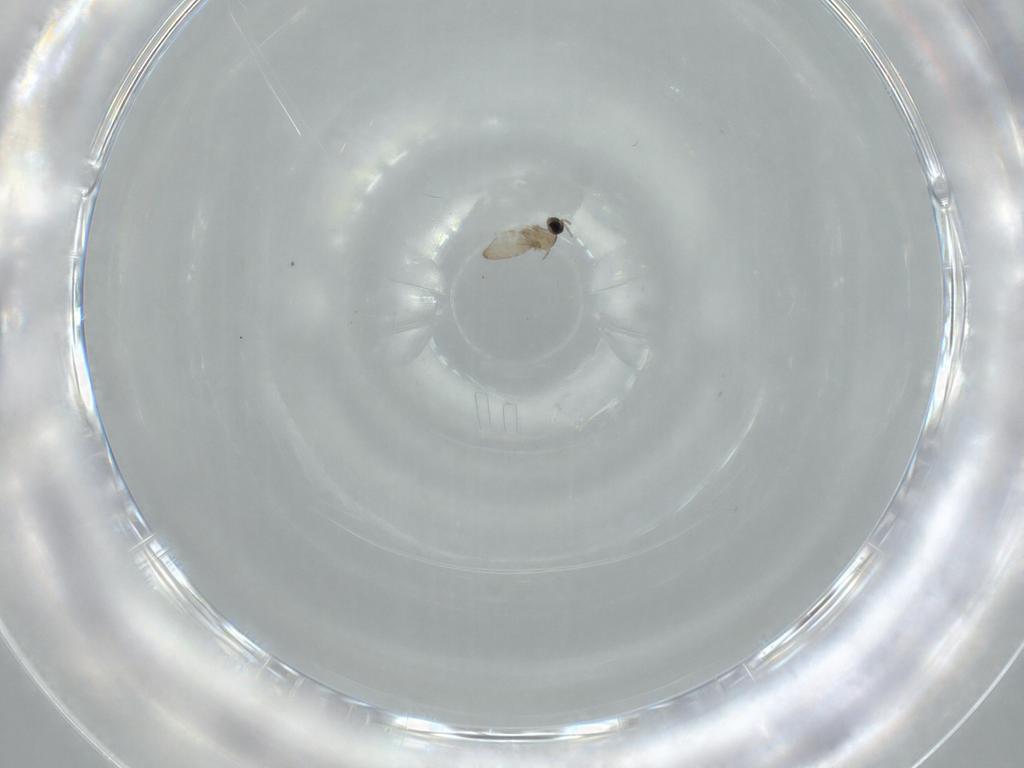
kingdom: Animalia
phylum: Arthropoda
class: Insecta
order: Diptera
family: Cecidomyiidae
